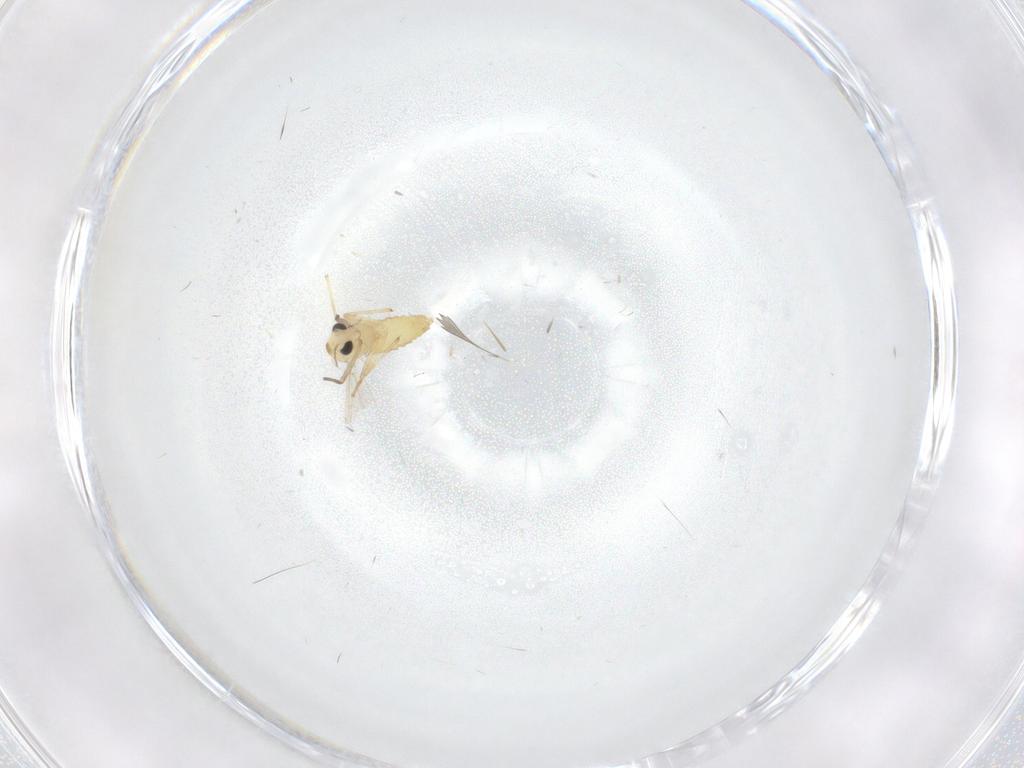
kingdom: Animalia
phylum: Arthropoda
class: Insecta
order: Diptera
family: Chironomidae
